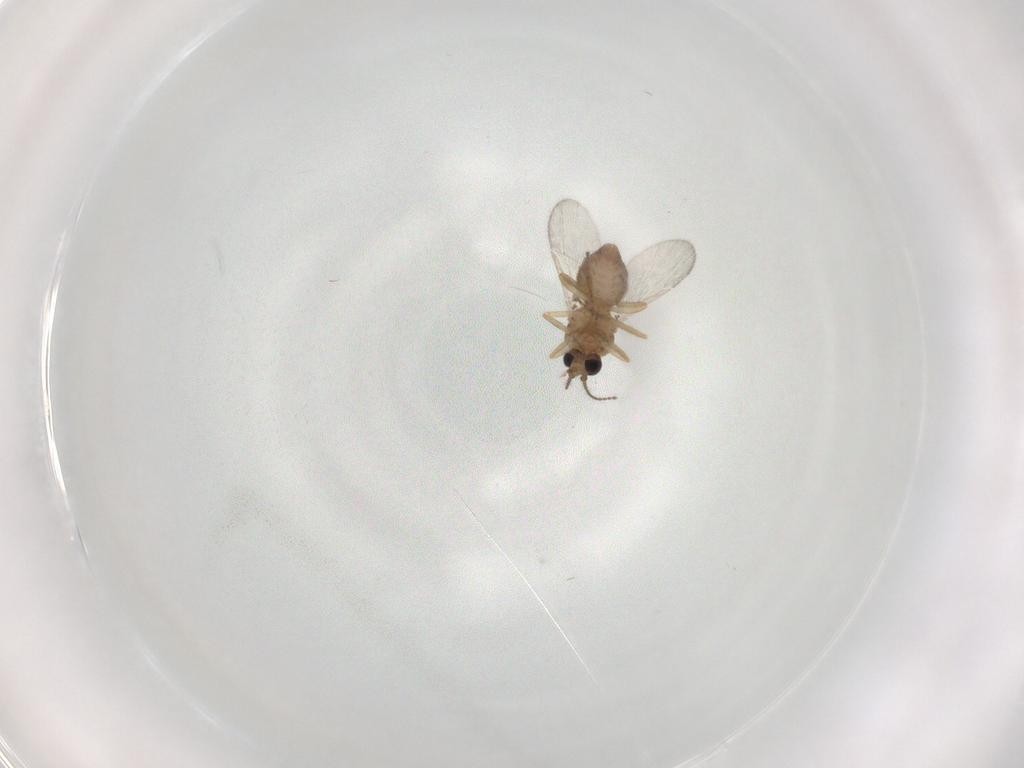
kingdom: Animalia
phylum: Arthropoda
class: Insecta
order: Diptera
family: Ceratopogonidae
